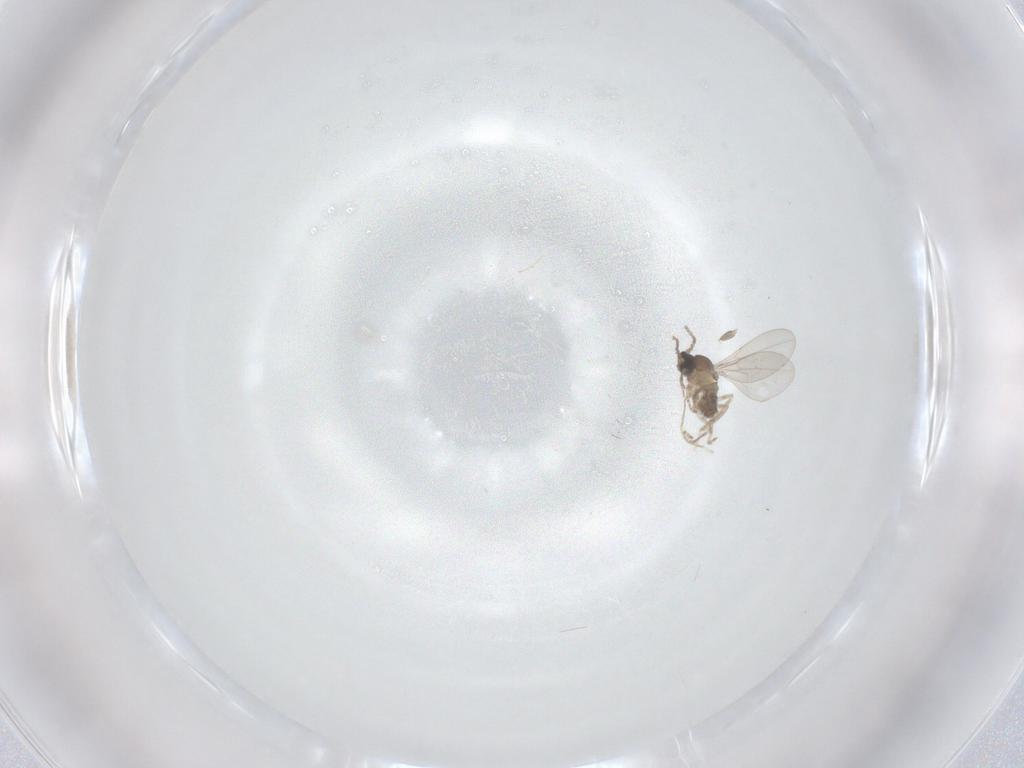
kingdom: Animalia
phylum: Arthropoda
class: Insecta
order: Diptera
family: Cecidomyiidae
